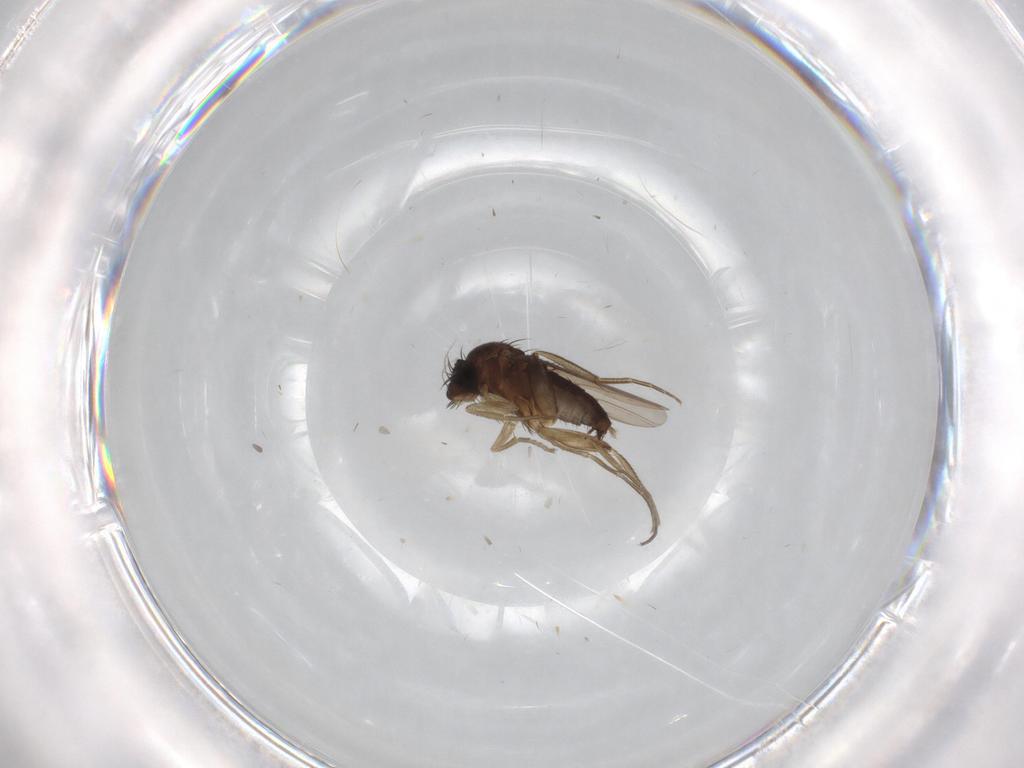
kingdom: Animalia
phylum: Arthropoda
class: Insecta
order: Diptera
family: Phoridae
